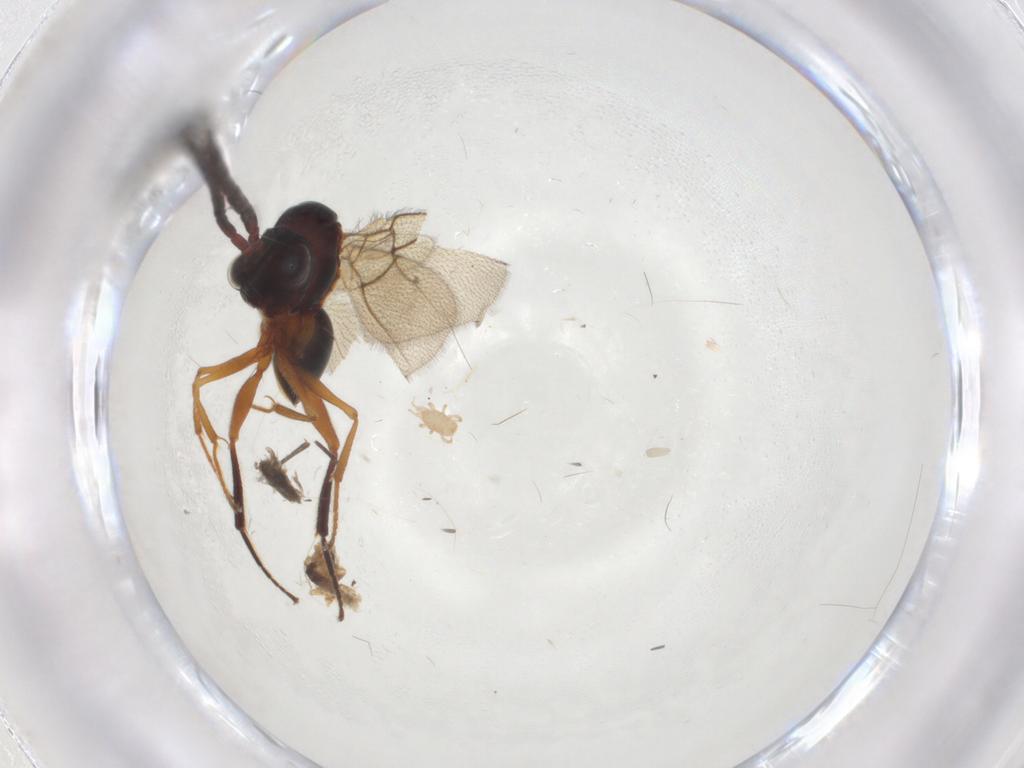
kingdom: Animalia
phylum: Arthropoda
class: Insecta
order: Hymenoptera
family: Figitidae
